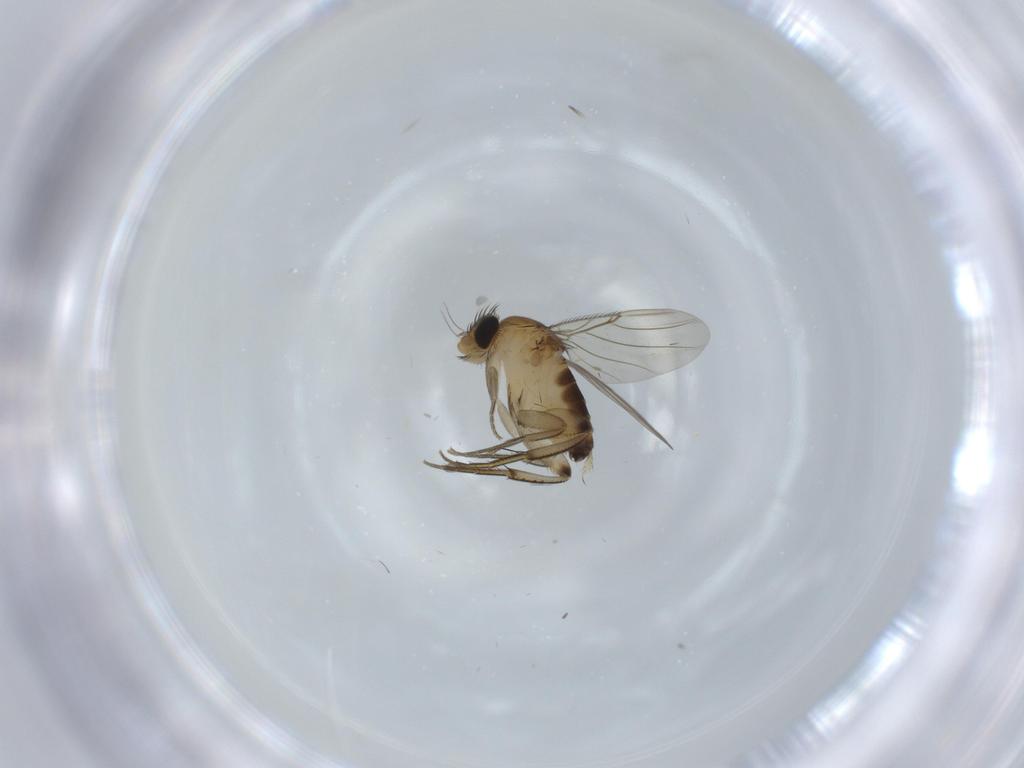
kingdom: Animalia
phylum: Arthropoda
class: Insecta
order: Diptera
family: Phoridae
